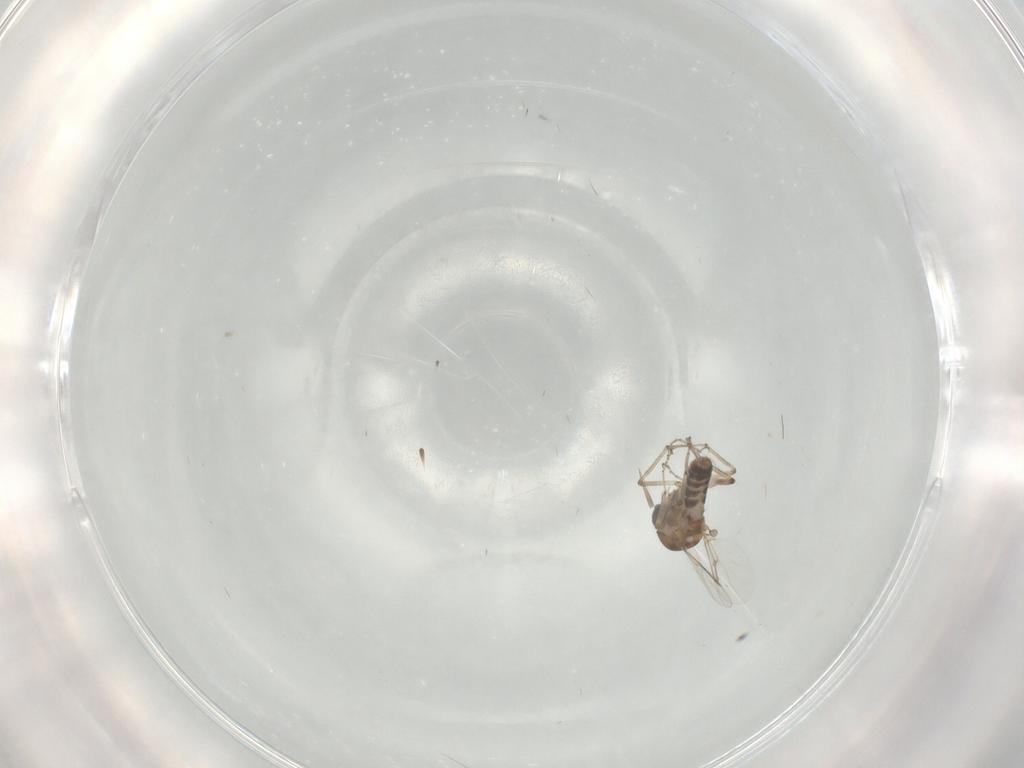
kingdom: Animalia
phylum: Arthropoda
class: Insecta
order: Diptera
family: Ceratopogonidae
